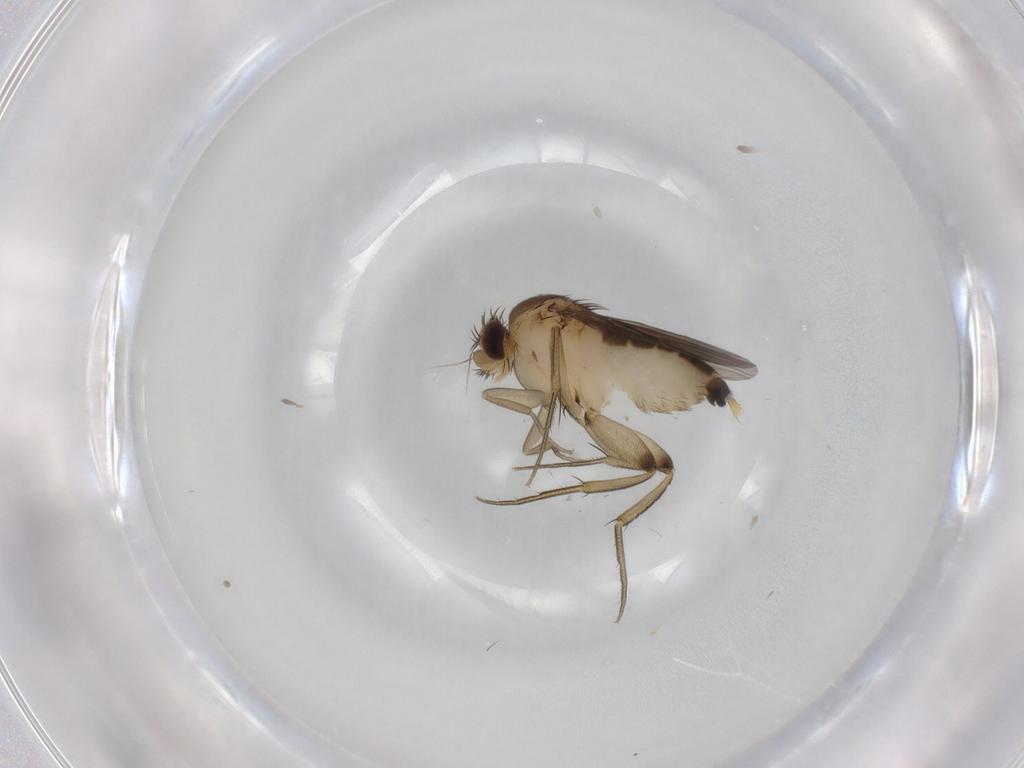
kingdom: Animalia
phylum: Arthropoda
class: Insecta
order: Diptera
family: Phoridae
